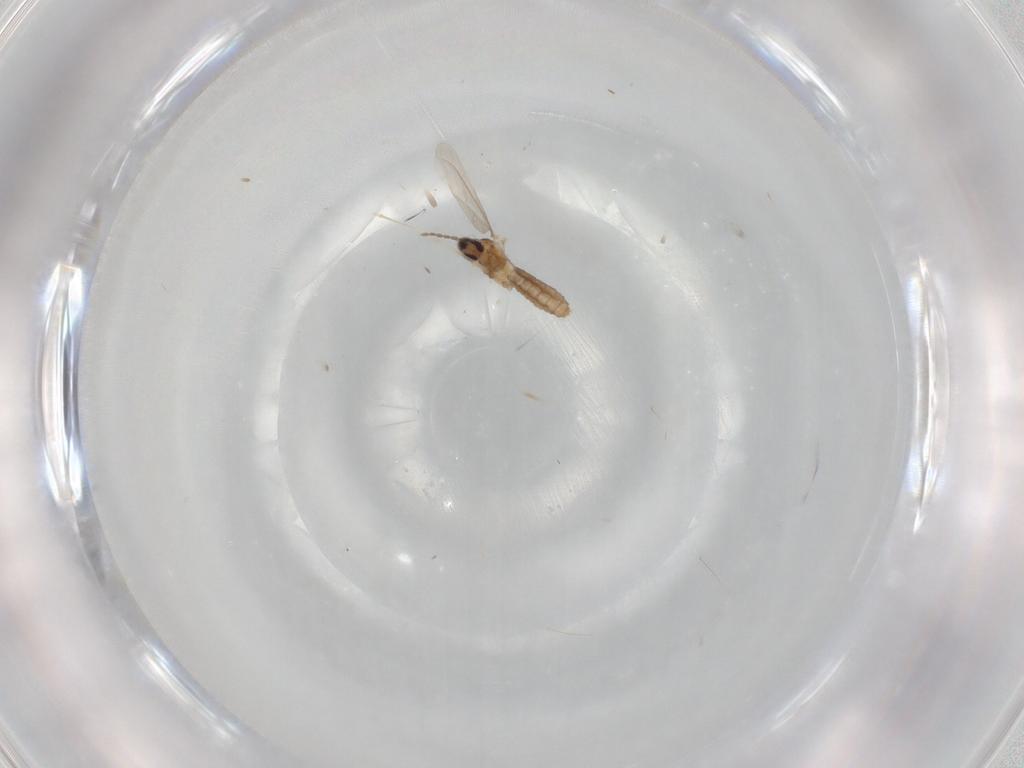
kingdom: Animalia
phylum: Arthropoda
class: Insecta
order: Diptera
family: Cecidomyiidae
